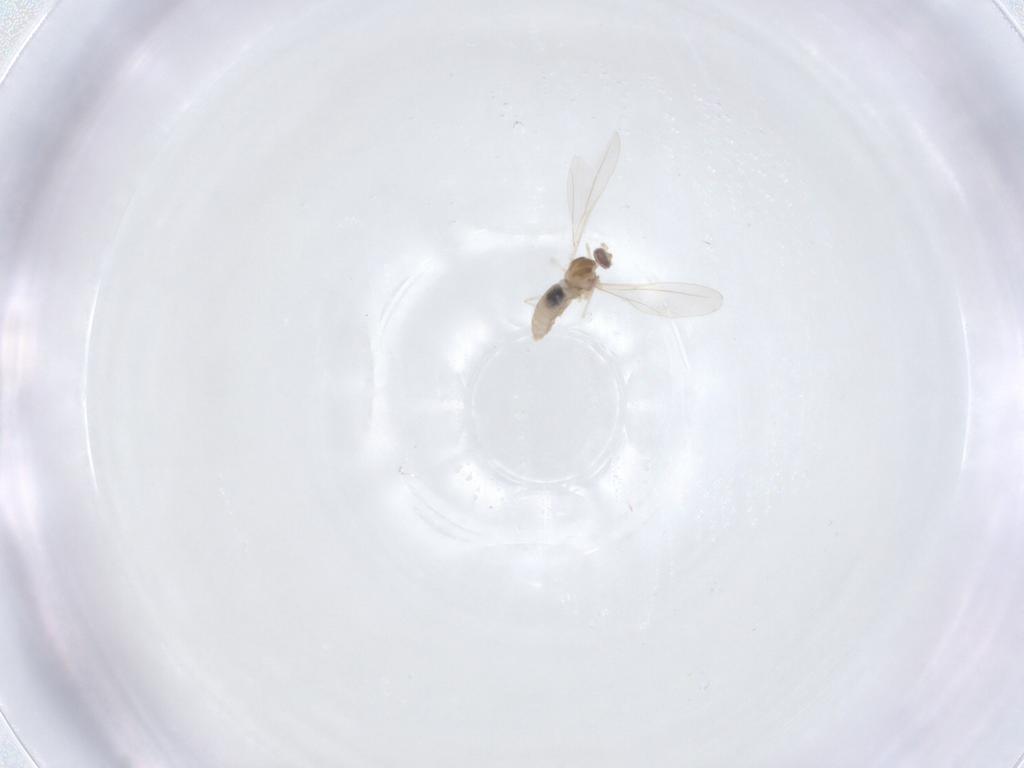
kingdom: Animalia
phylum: Arthropoda
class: Insecta
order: Diptera
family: Cecidomyiidae
